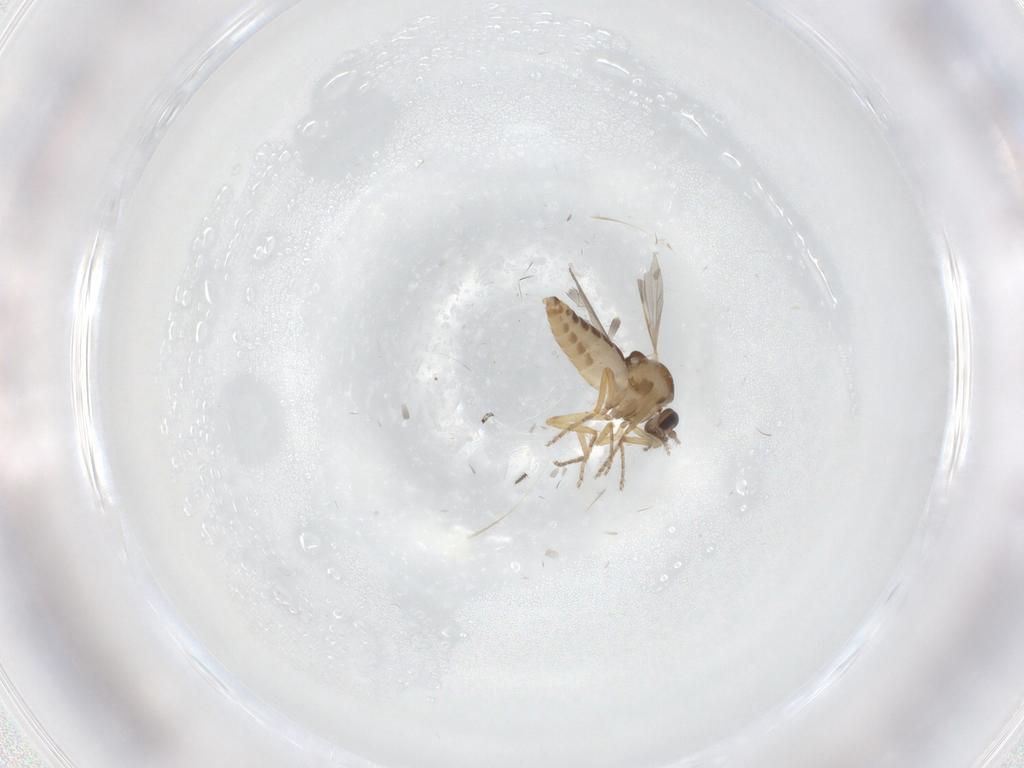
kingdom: Animalia
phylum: Arthropoda
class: Insecta
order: Diptera
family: Ceratopogonidae
